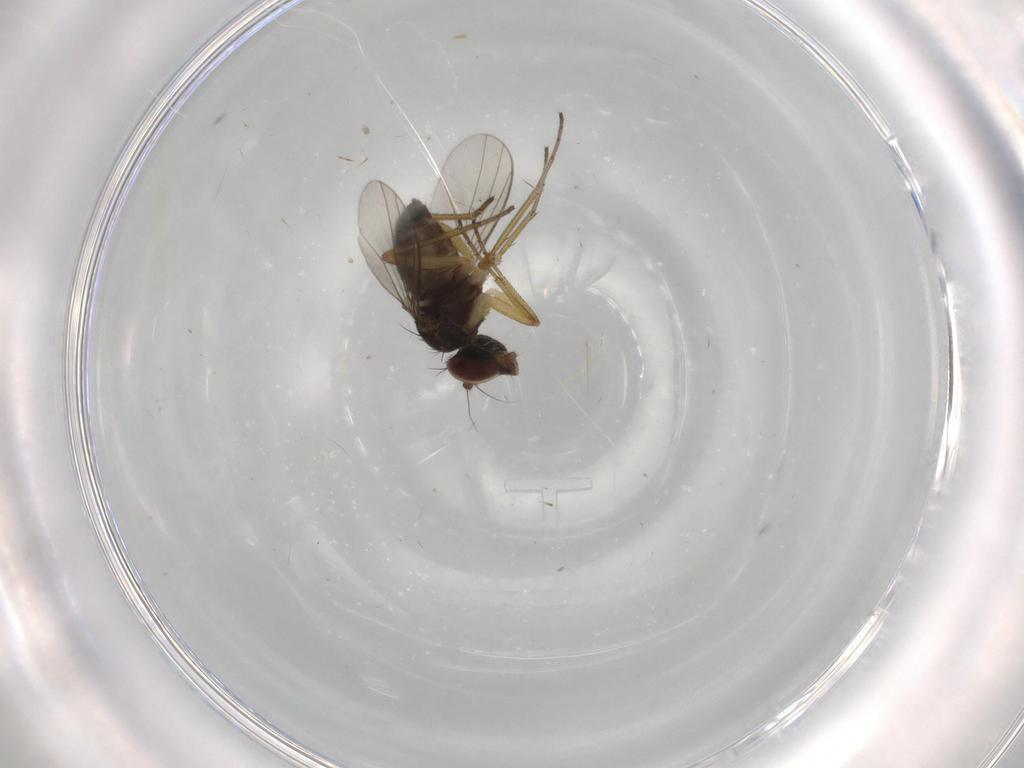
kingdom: Animalia
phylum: Arthropoda
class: Insecta
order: Diptera
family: Dolichopodidae
